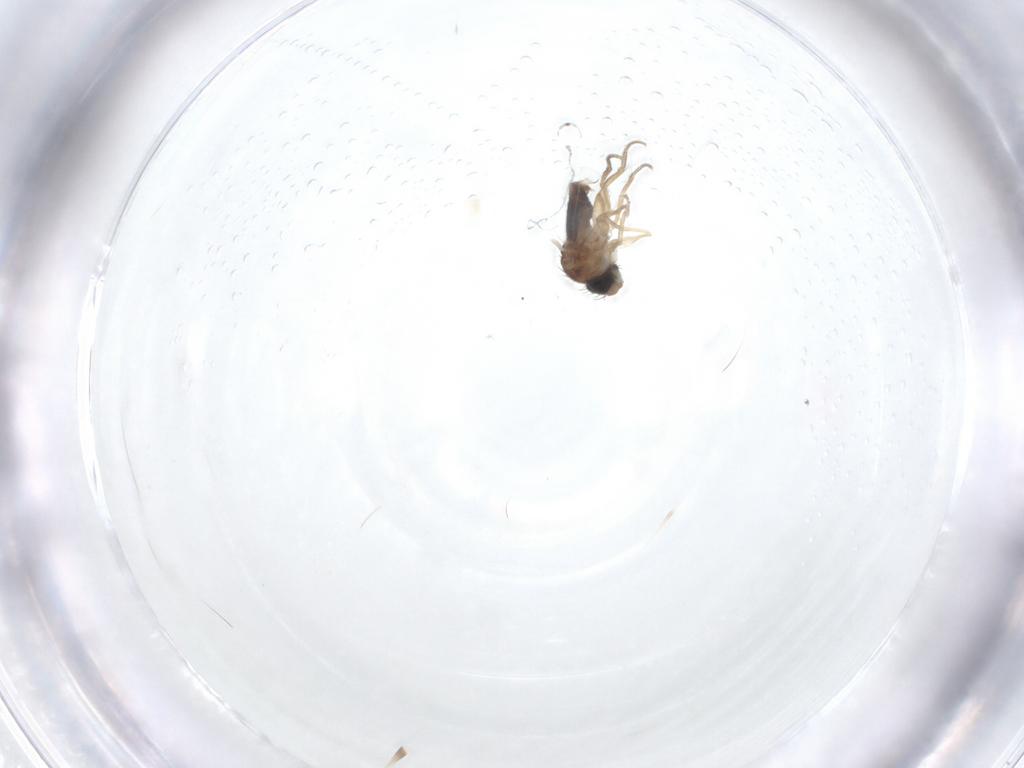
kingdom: Animalia
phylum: Arthropoda
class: Insecta
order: Diptera
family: Phoridae
